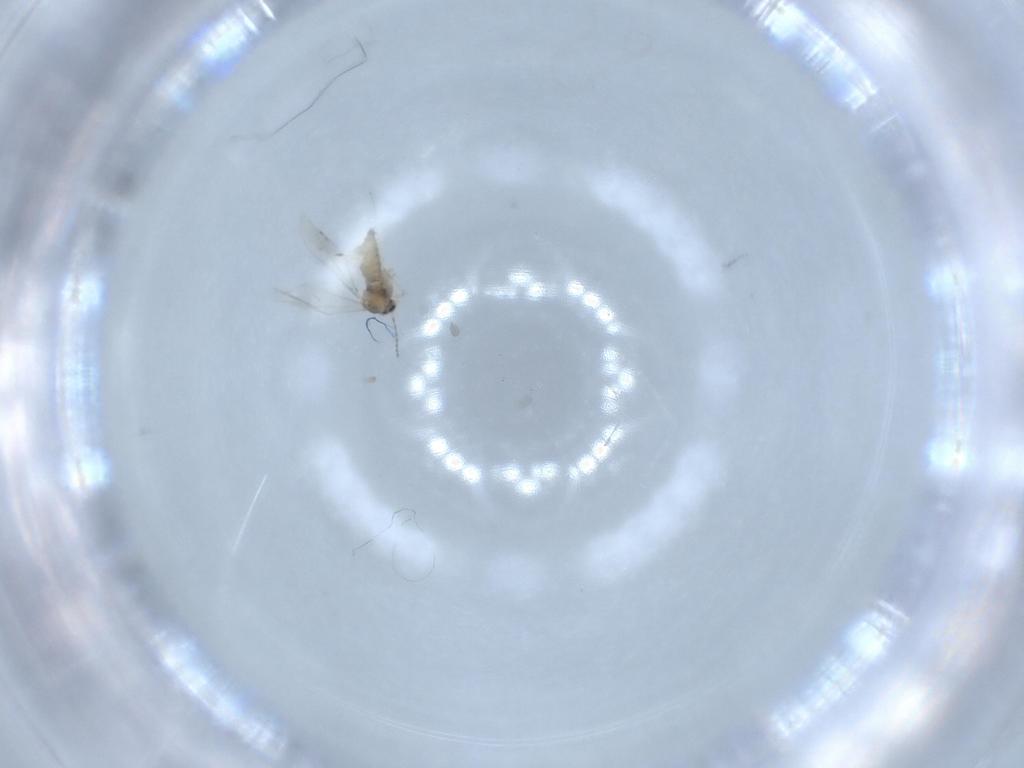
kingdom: Animalia
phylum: Arthropoda
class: Insecta
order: Diptera
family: Cecidomyiidae
